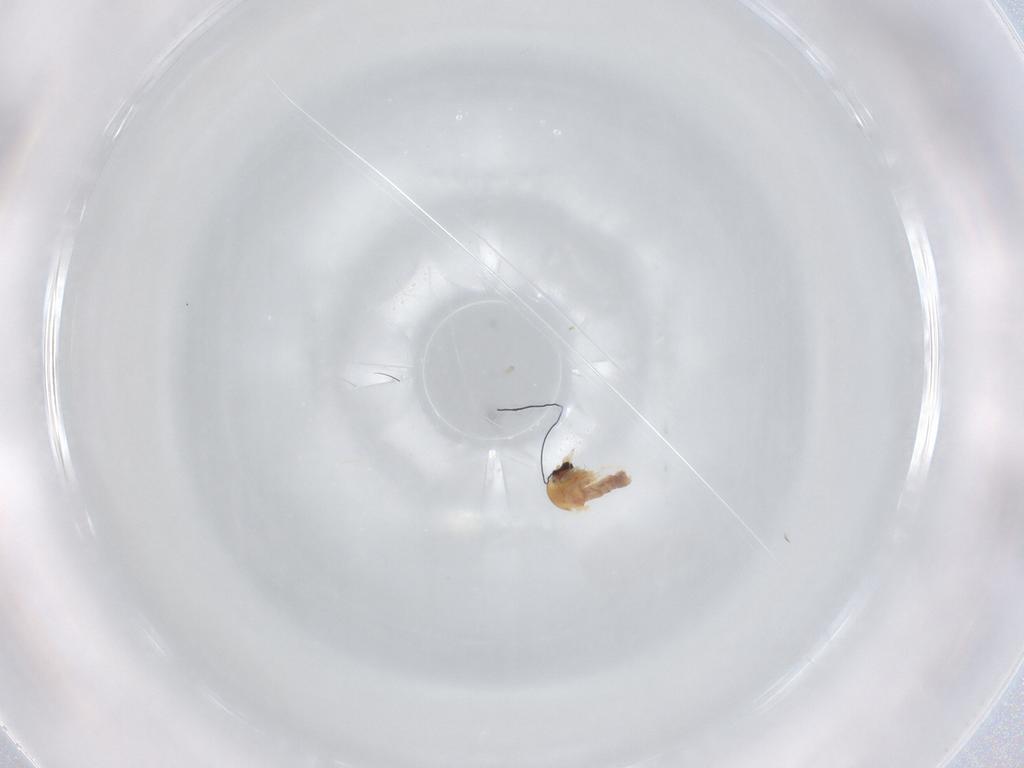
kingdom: Animalia
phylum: Arthropoda
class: Insecta
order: Diptera
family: Ceratopogonidae
